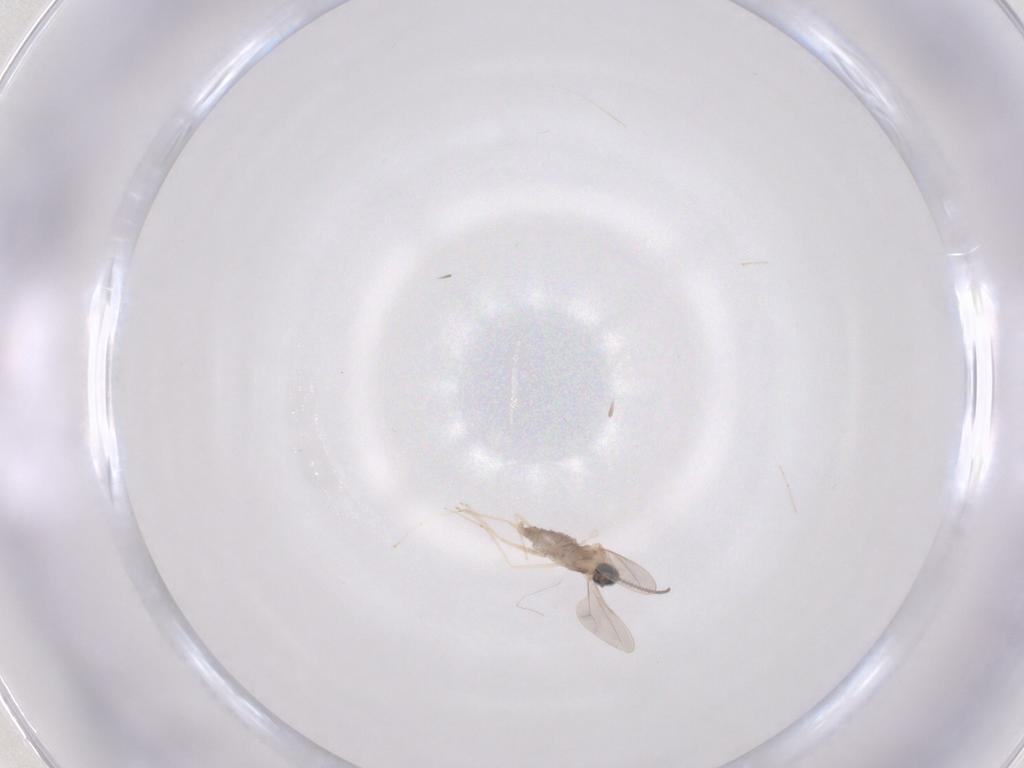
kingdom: Animalia
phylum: Arthropoda
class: Insecta
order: Diptera
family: Cecidomyiidae
